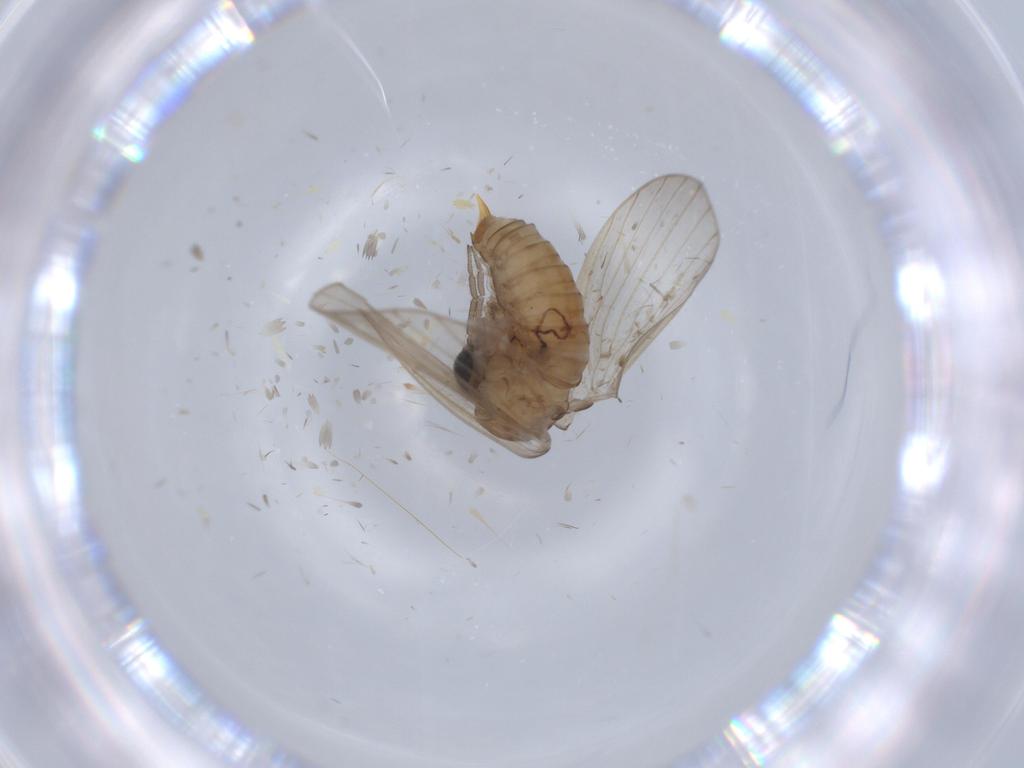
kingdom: Animalia
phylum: Arthropoda
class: Insecta
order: Diptera
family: Psychodidae
